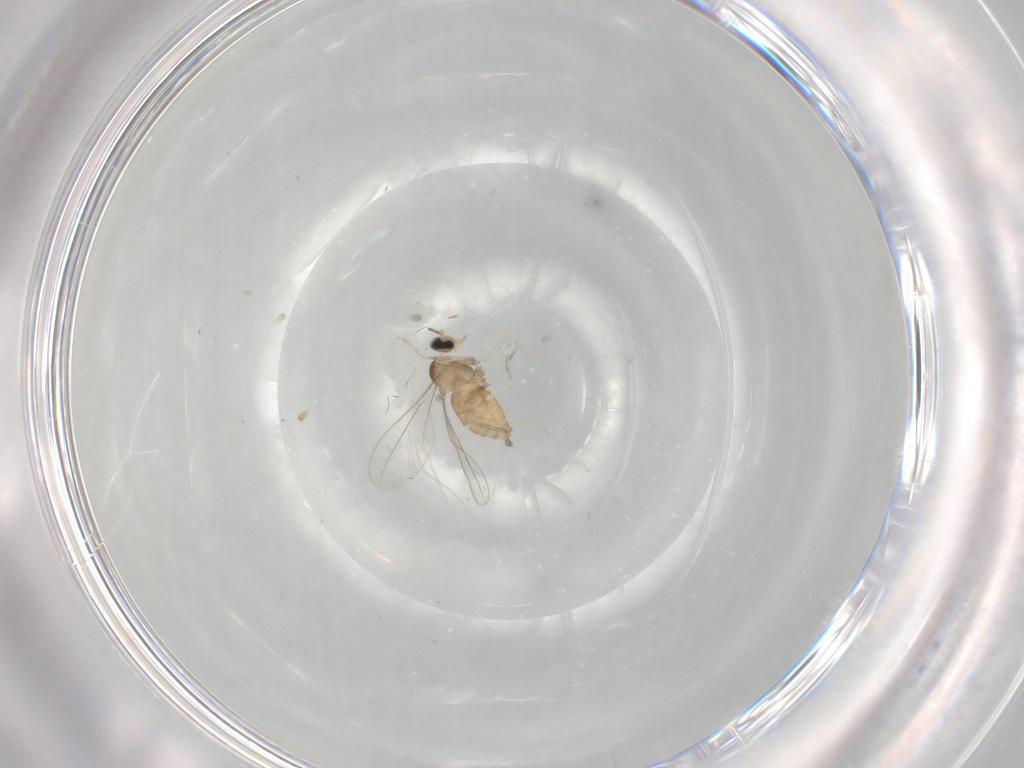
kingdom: Animalia
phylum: Arthropoda
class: Insecta
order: Diptera
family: Cecidomyiidae
